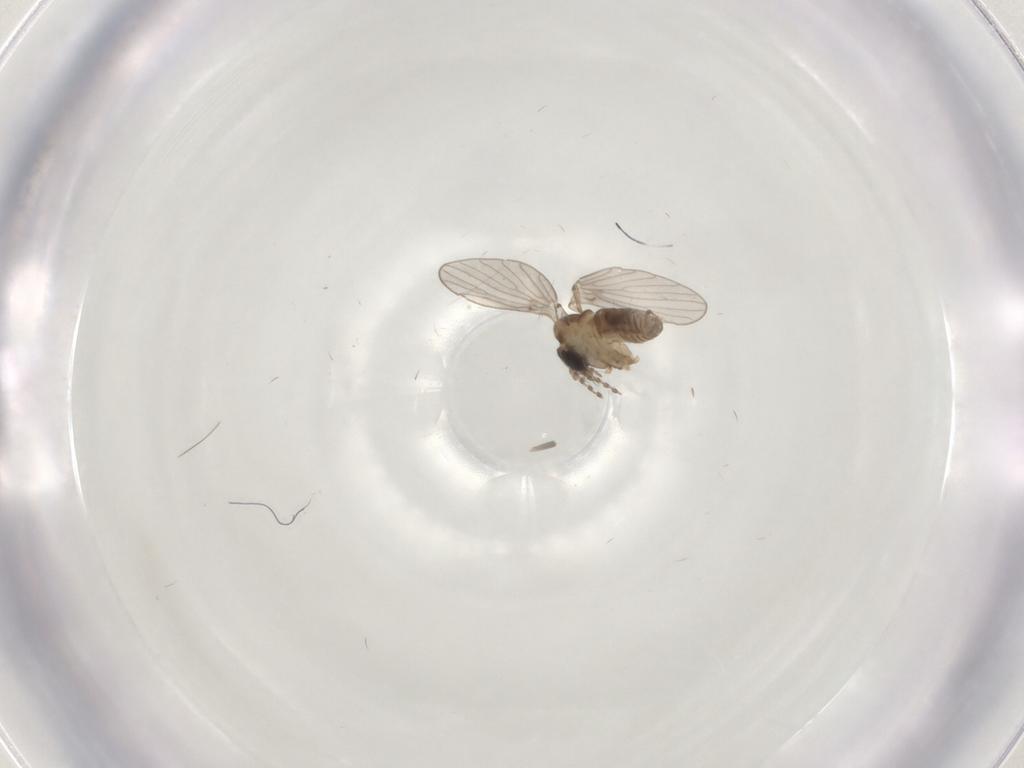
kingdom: Animalia
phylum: Arthropoda
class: Insecta
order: Diptera
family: Psychodidae
